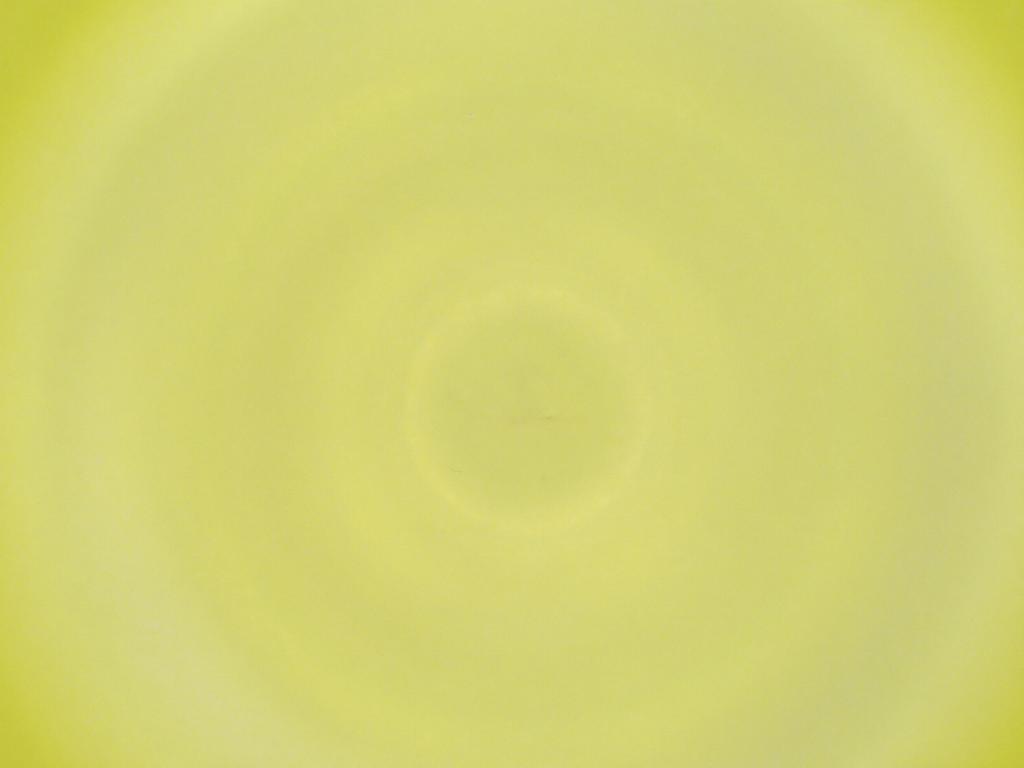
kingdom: Animalia
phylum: Arthropoda
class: Insecta
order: Diptera
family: Cecidomyiidae
